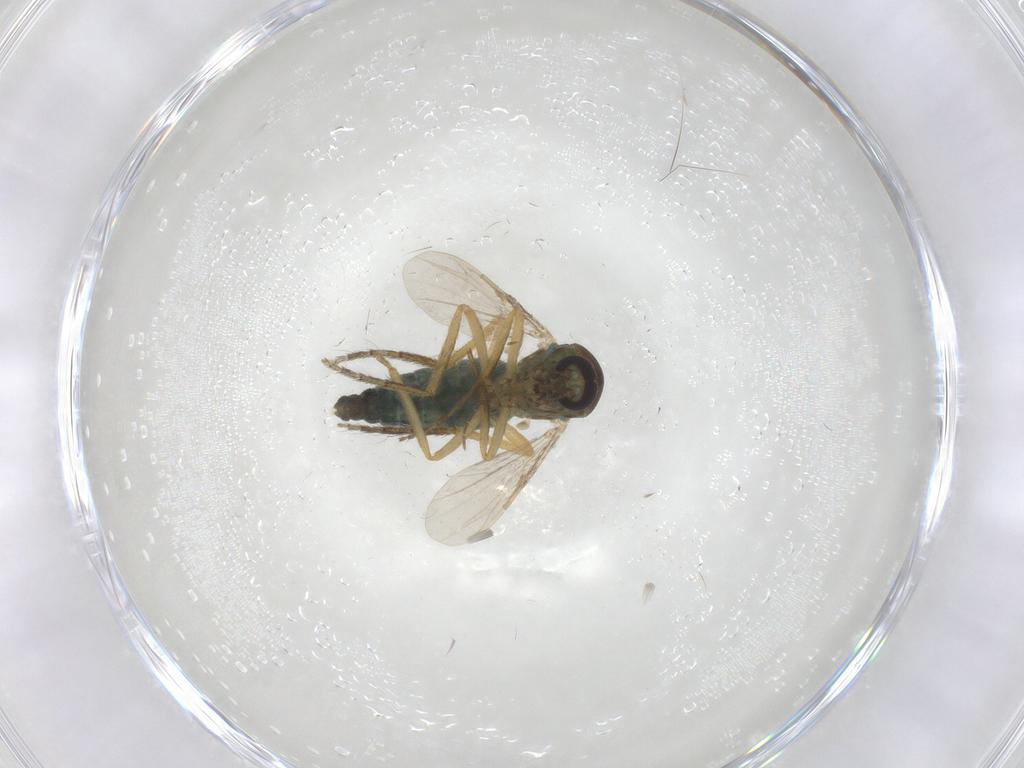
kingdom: Animalia
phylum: Arthropoda
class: Insecta
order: Diptera
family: Ceratopogonidae
